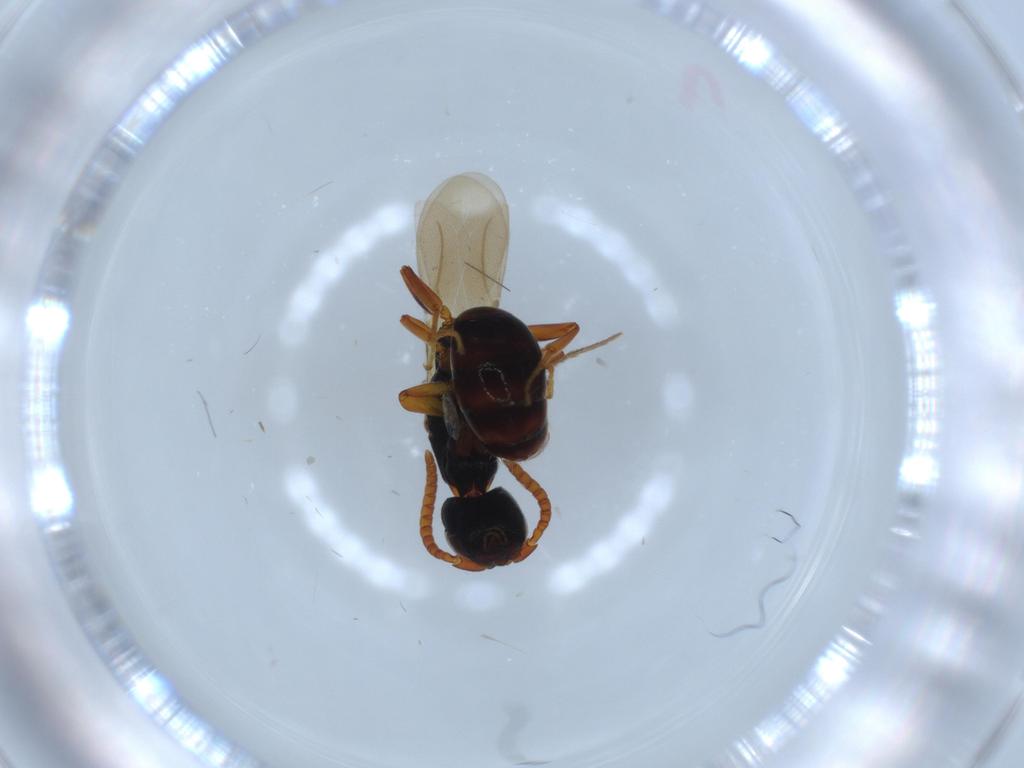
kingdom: Animalia
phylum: Arthropoda
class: Insecta
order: Hymenoptera
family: Bethylidae
